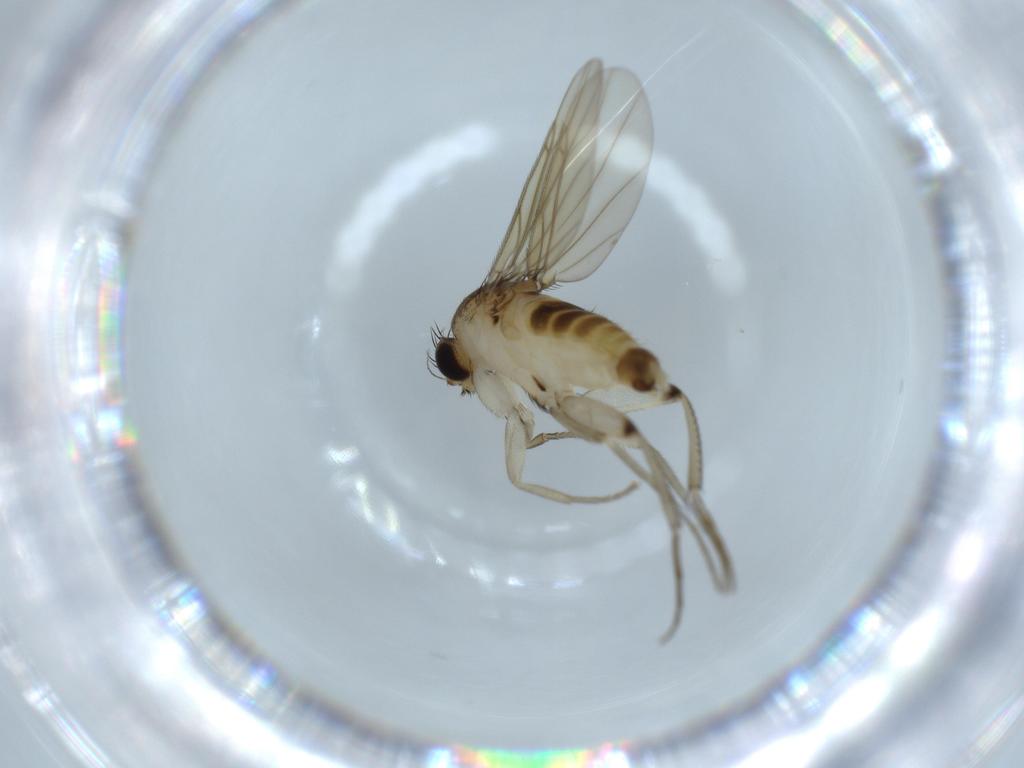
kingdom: Animalia
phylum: Arthropoda
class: Insecta
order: Diptera
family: Phoridae
